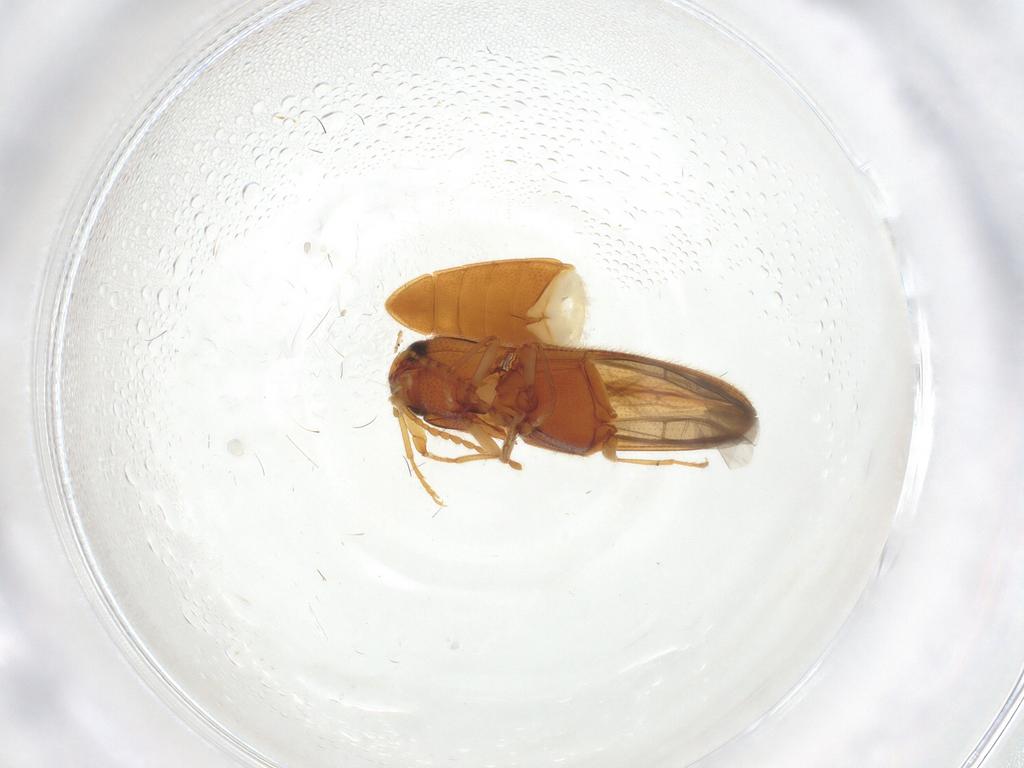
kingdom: Animalia
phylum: Arthropoda
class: Insecta
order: Coleoptera
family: Elateridae
